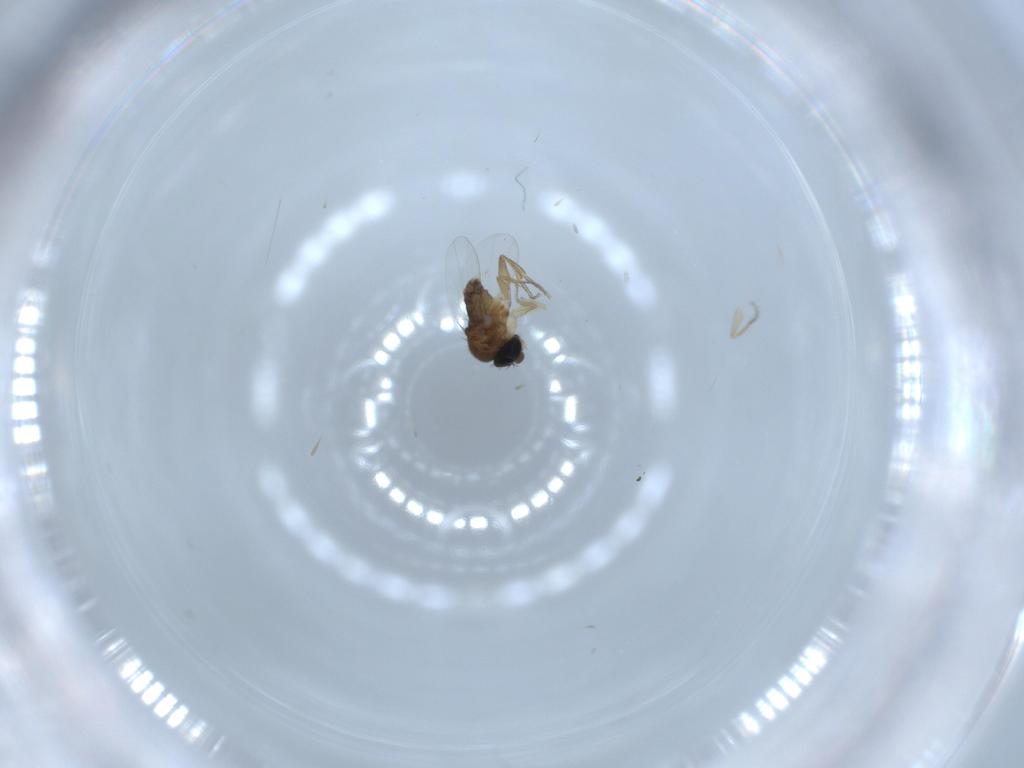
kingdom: Animalia
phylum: Arthropoda
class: Insecta
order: Diptera
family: Phoridae
